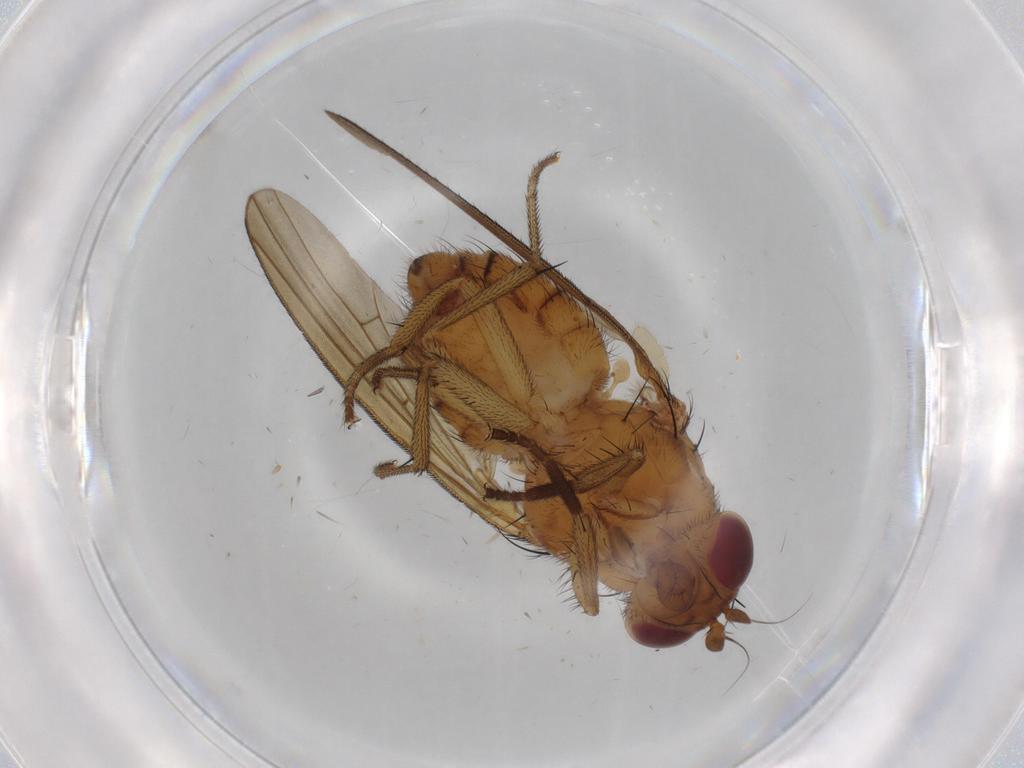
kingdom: Animalia
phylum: Arthropoda
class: Insecta
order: Diptera
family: Lauxaniidae
